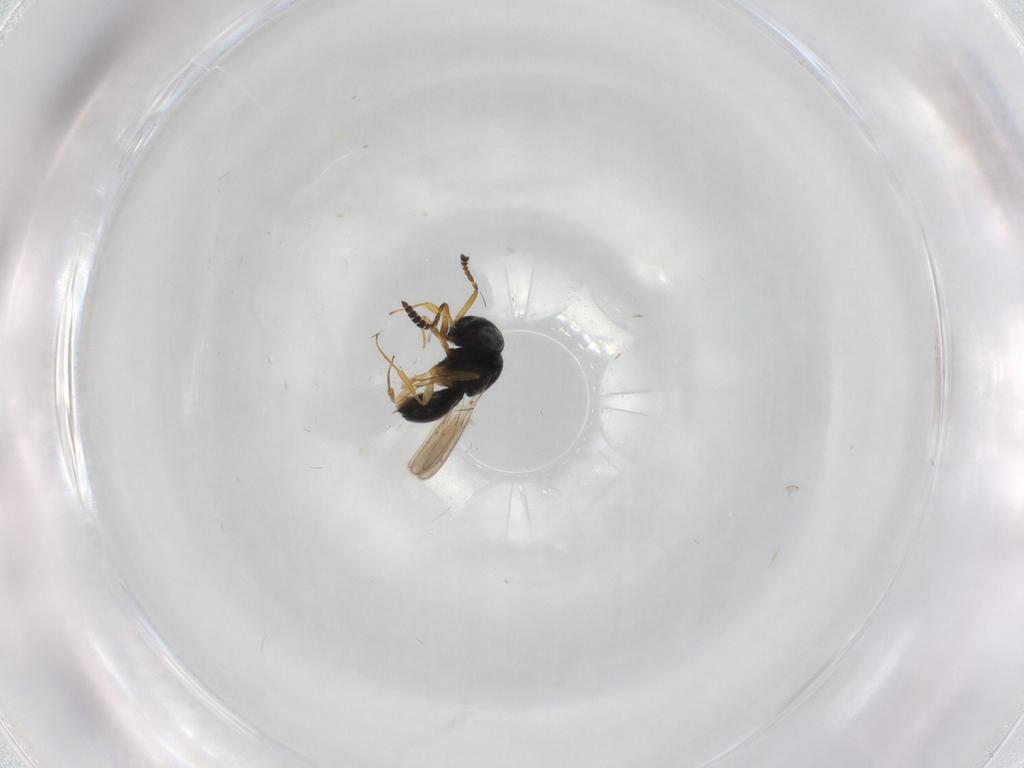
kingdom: Animalia
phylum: Arthropoda
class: Insecta
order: Hymenoptera
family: Scelionidae
